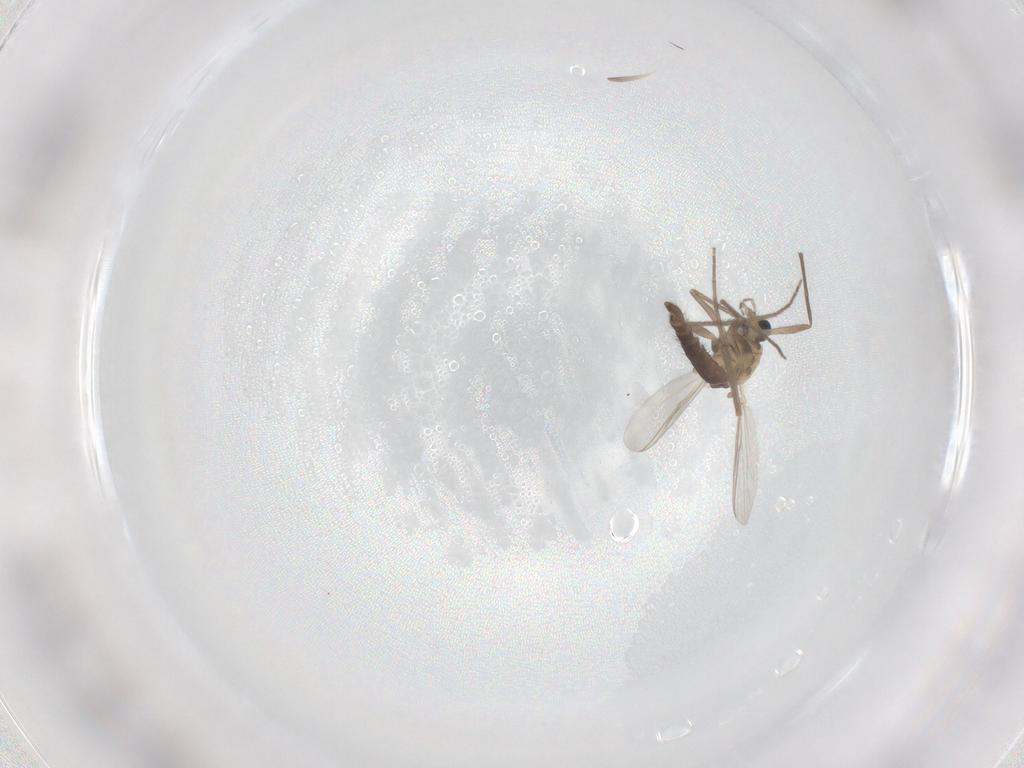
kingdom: Animalia
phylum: Arthropoda
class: Insecta
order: Diptera
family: Chironomidae
